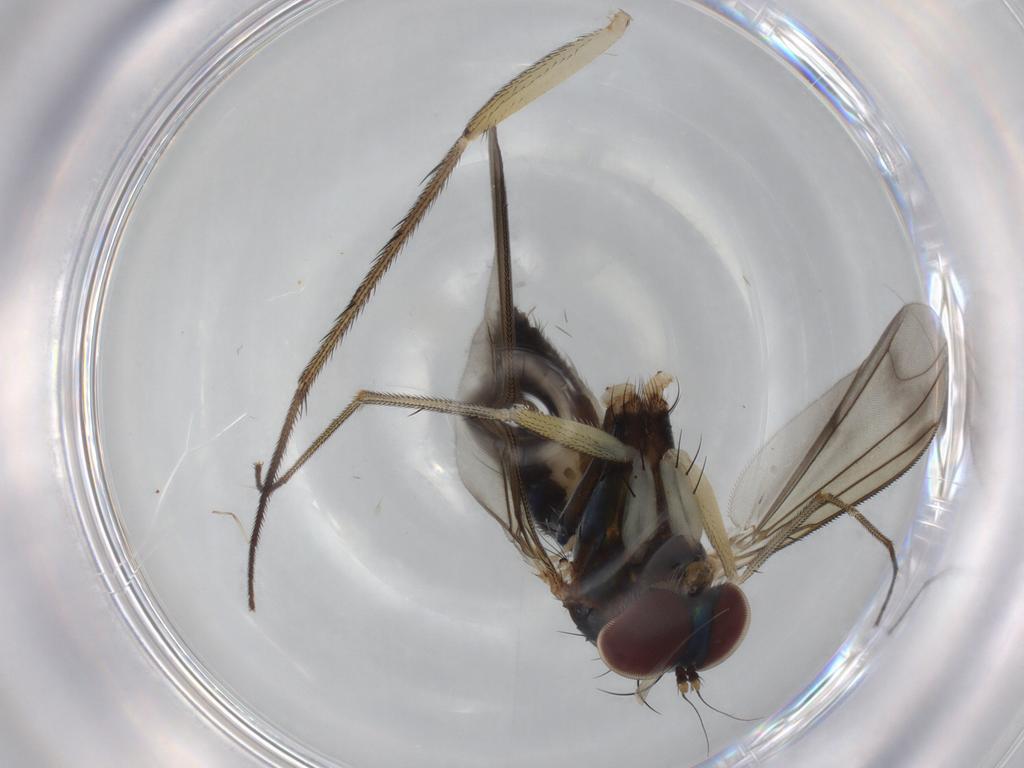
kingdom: Animalia
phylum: Arthropoda
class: Insecta
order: Diptera
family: Dolichopodidae
